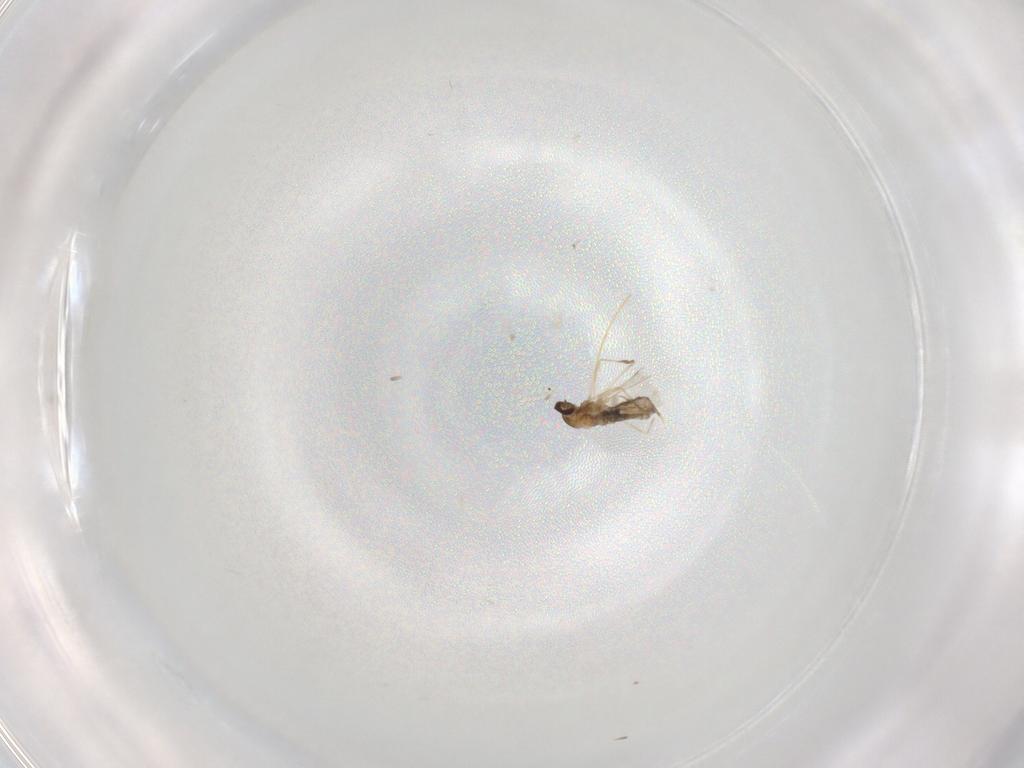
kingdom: Animalia
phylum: Arthropoda
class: Insecta
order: Diptera
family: Cecidomyiidae
